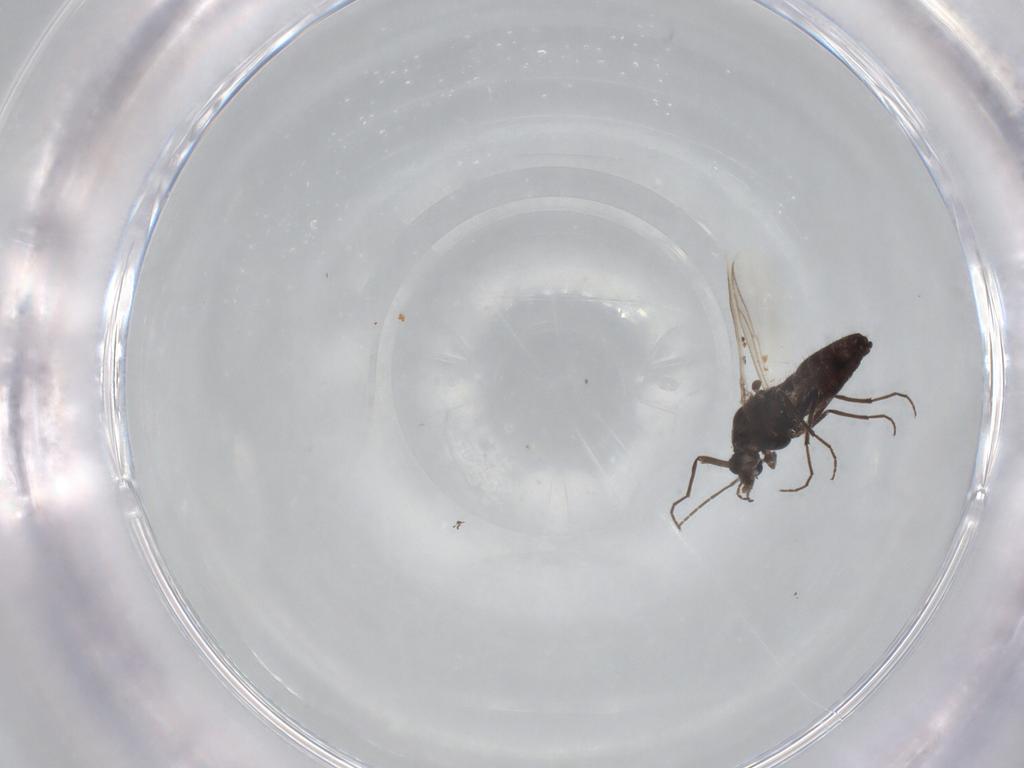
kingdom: Animalia
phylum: Arthropoda
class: Insecta
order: Diptera
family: Chironomidae
